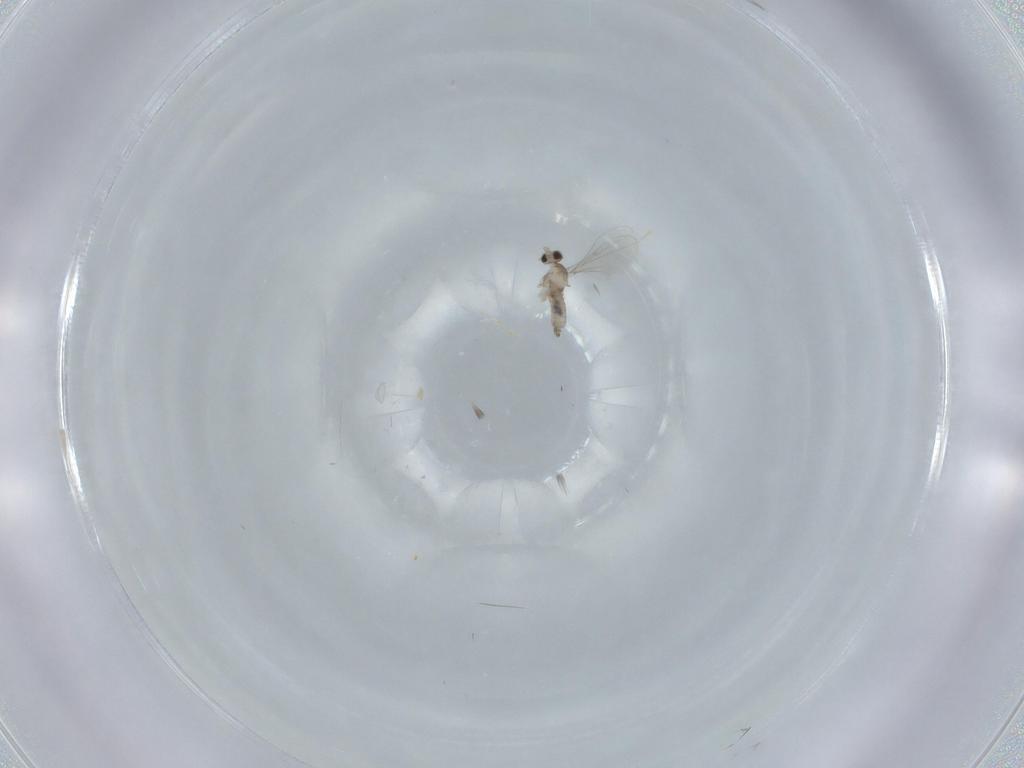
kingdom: Animalia
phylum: Arthropoda
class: Insecta
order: Diptera
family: Cecidomyiidae
